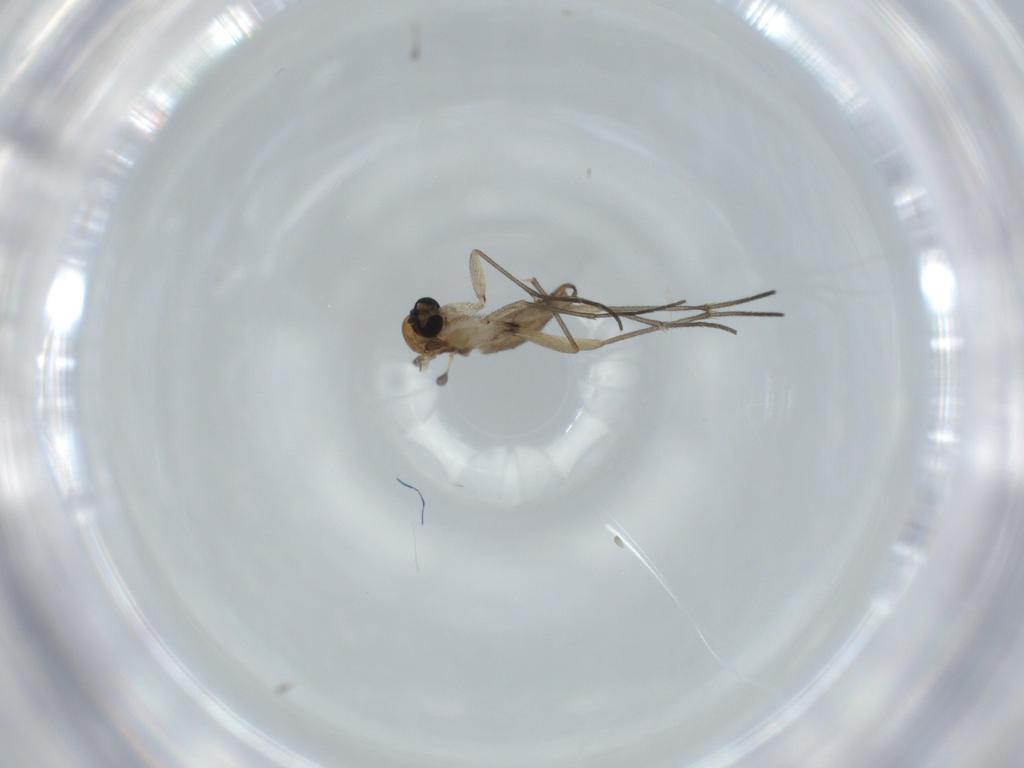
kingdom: Animalia
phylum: Arthropoda
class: Insecta
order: Diptera
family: Sciaridae
